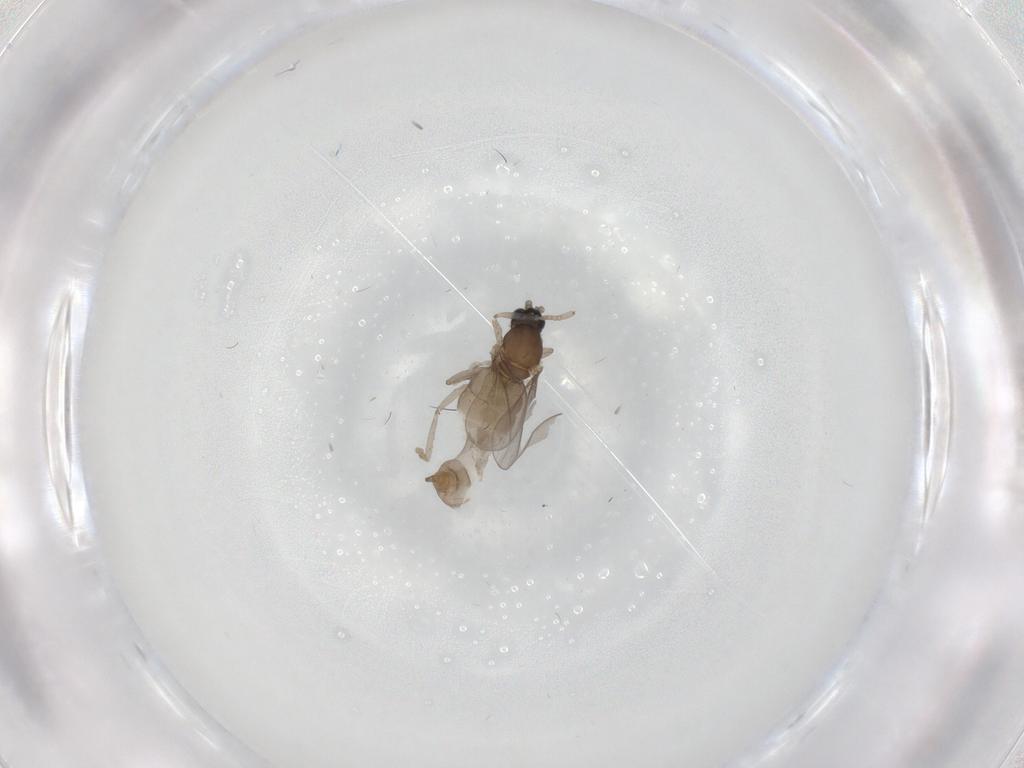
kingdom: Animalia
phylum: Arthropoda
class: Insecta
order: Diptera
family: Cecidomyiidae
